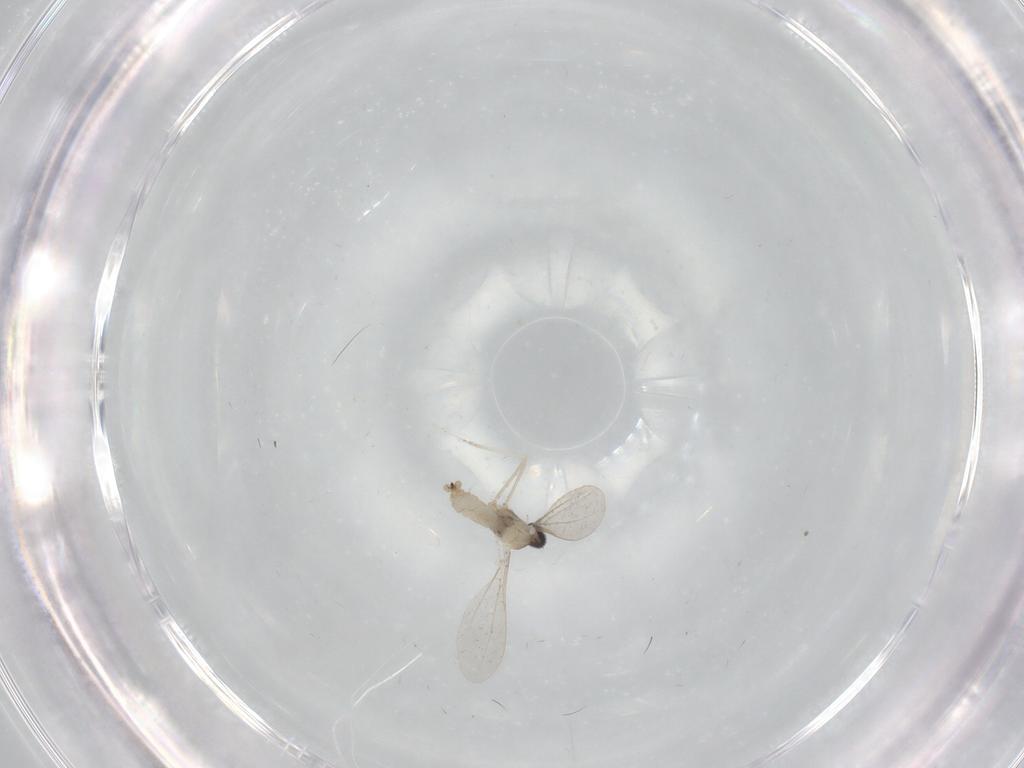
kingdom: Animalia
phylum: Arthropoda
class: Insecta
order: Diptera
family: Cecidomyiidae
